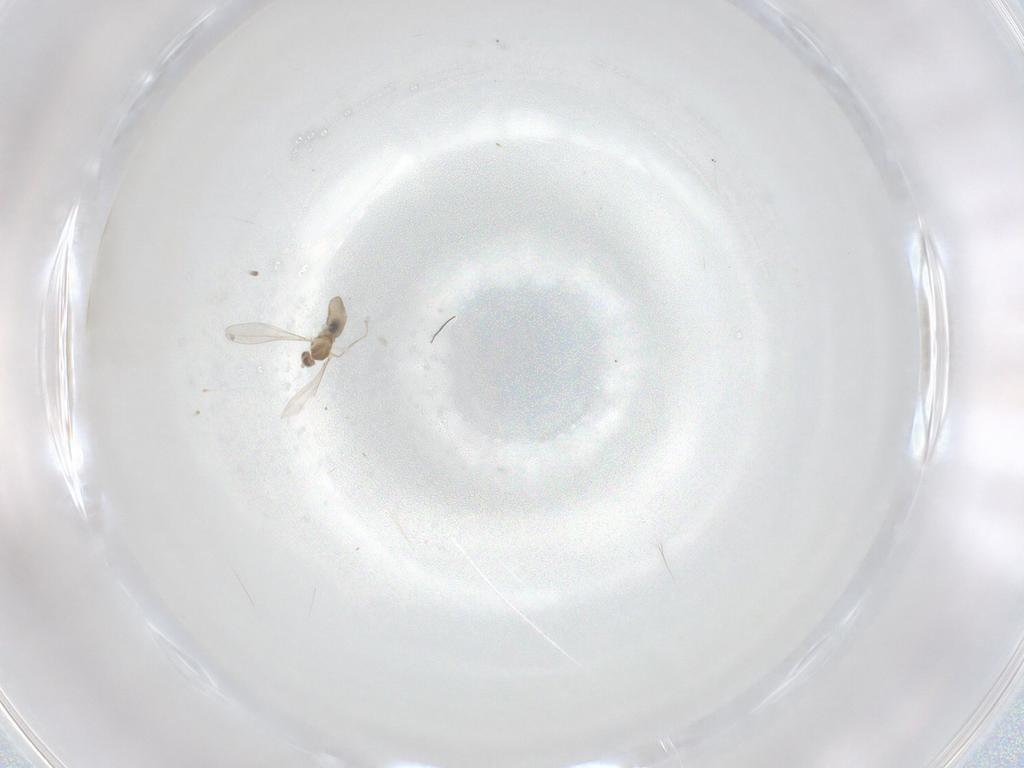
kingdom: Animalia
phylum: Arthropoda
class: Insecta
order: Diptera
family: Cecidomyiidae
